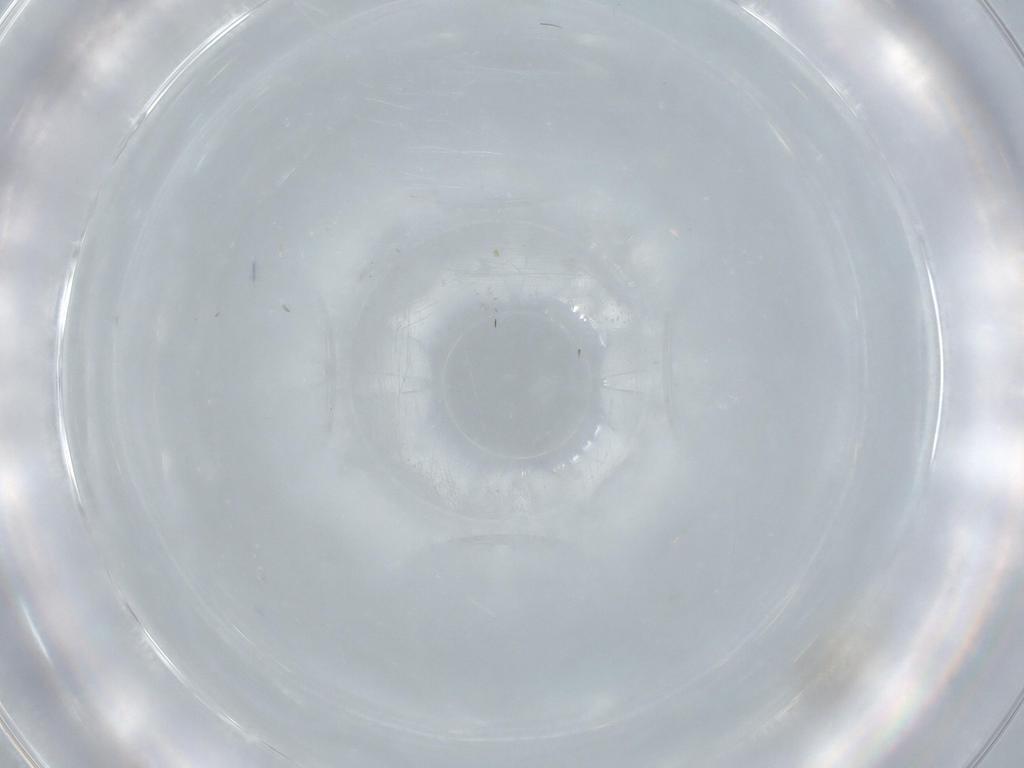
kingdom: Animalia
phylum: Arthropoda
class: Insecta
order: Diptera
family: Cecidomyiidae
